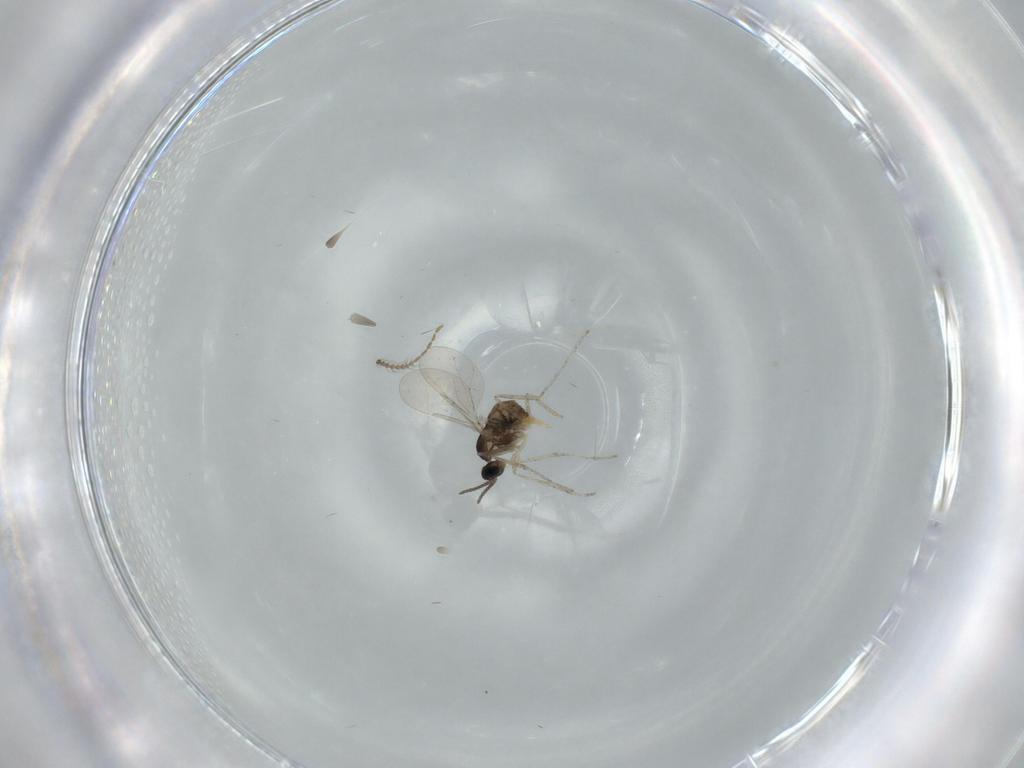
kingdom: Animalia
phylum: Arthropoda
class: Insecta
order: Diptera
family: Cecidomyiidae
